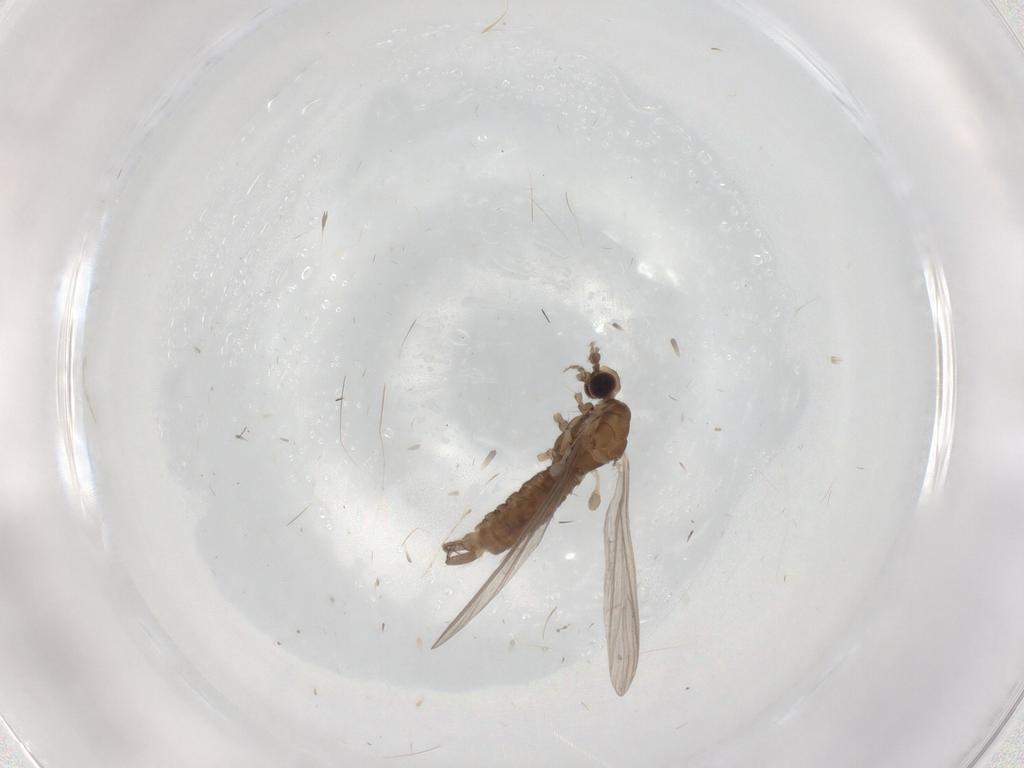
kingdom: Animalia
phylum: Arthropoda
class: Insecta
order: Diptera
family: Limoniidae
